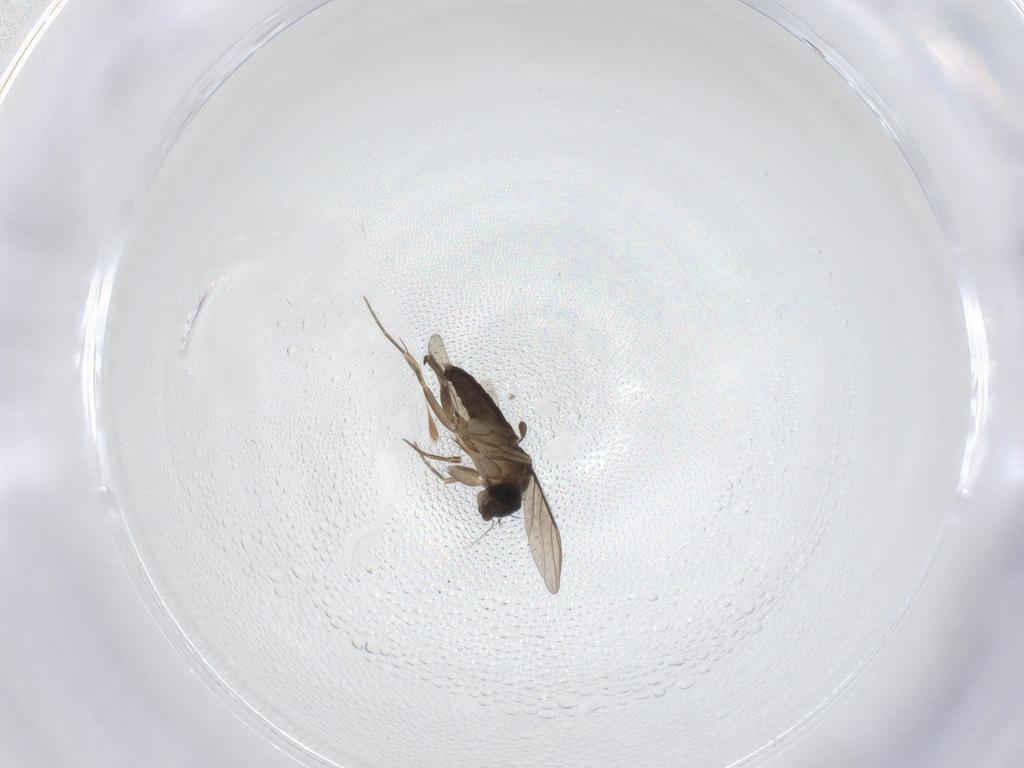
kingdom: Animalia
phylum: Arthropoda
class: Insecta
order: Diptera
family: Phoridae
